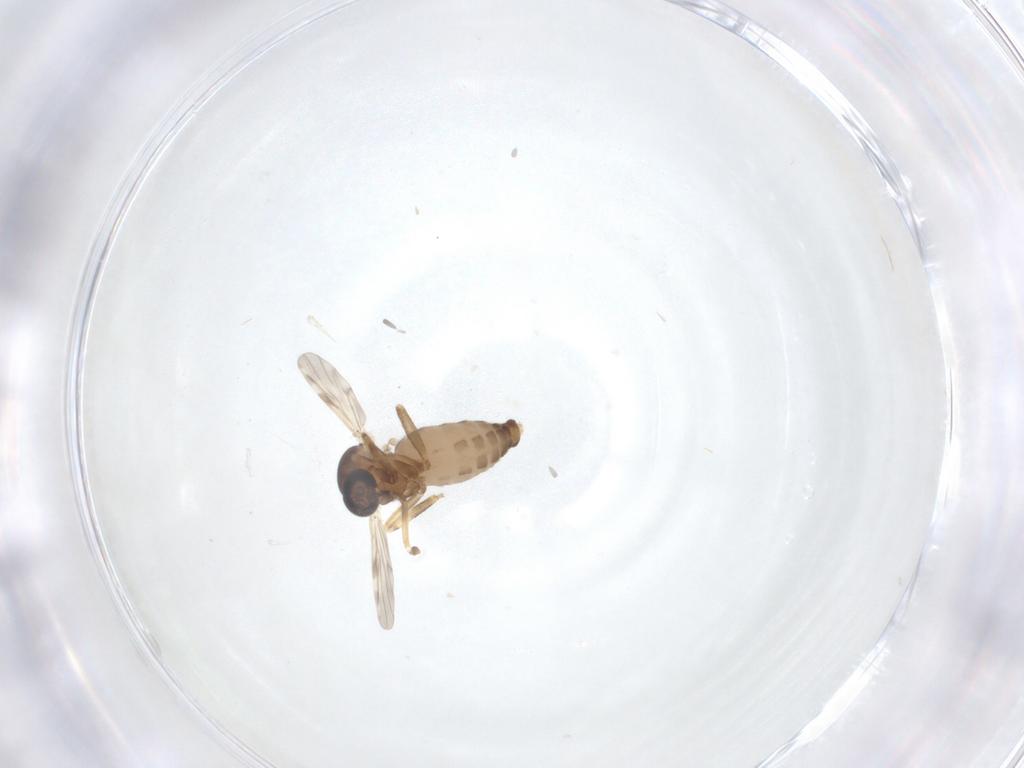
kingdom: Animalia
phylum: Arthropoda
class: Insecta
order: Diptera
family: Ceratopogonidae
